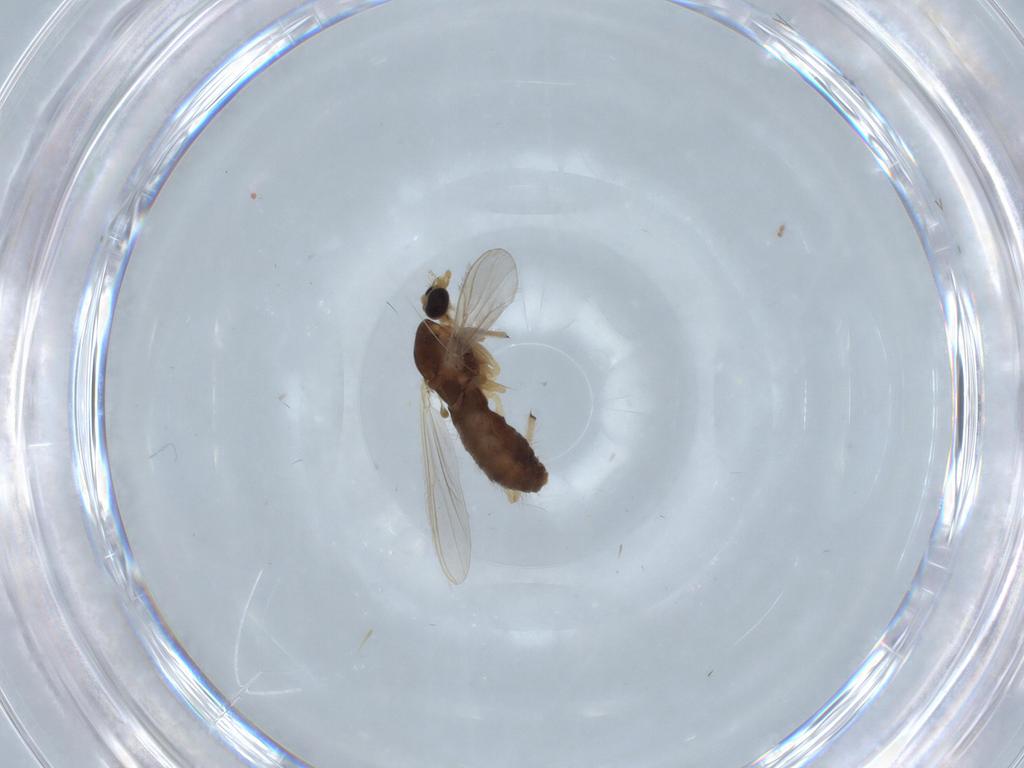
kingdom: Animalia
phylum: Arthropoda
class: Insecta
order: Diptera
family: Chironomidae
